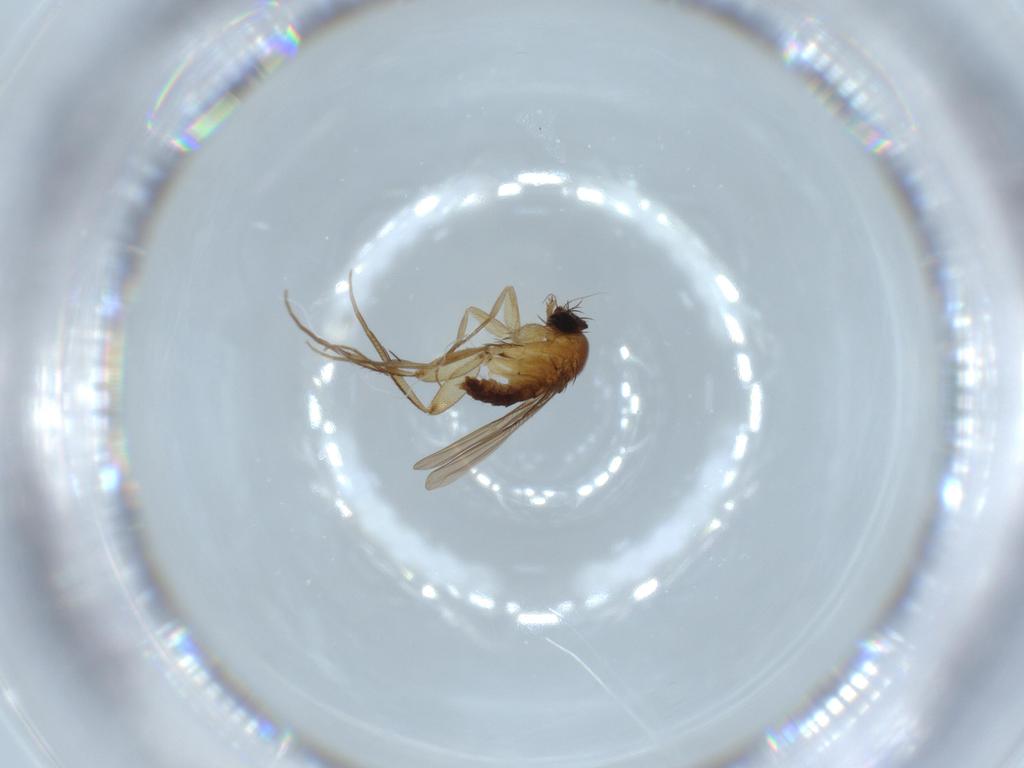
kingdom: Animalia
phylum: Arthropoda
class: Insecta
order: Diptera
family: Phoridae
